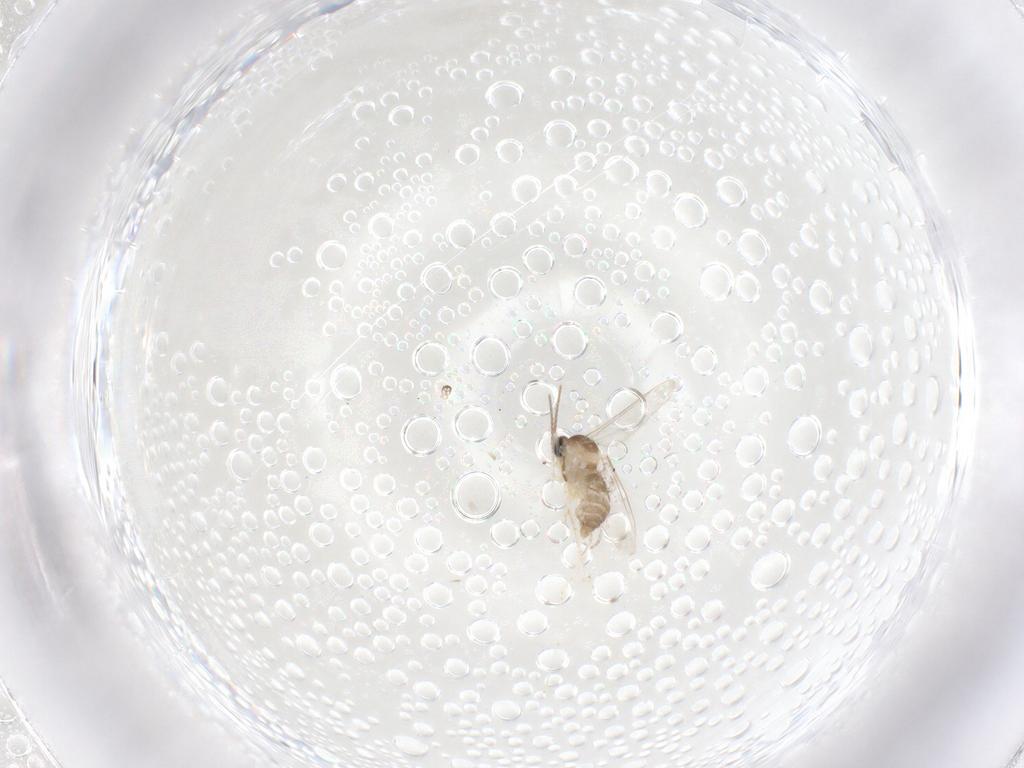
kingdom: Animalia
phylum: Arthropoda
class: Insecta
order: Diptera
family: Cecidomyiidae
